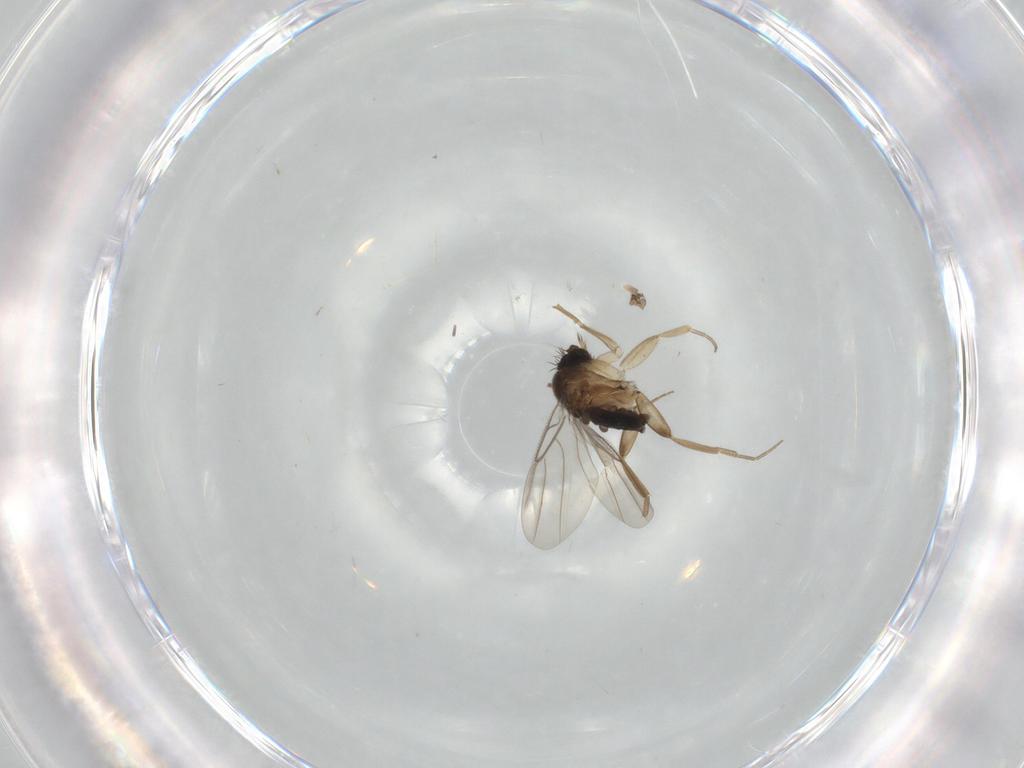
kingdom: Animalia
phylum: Arthropoda
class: Insecta
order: Diptera
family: Phoridae
